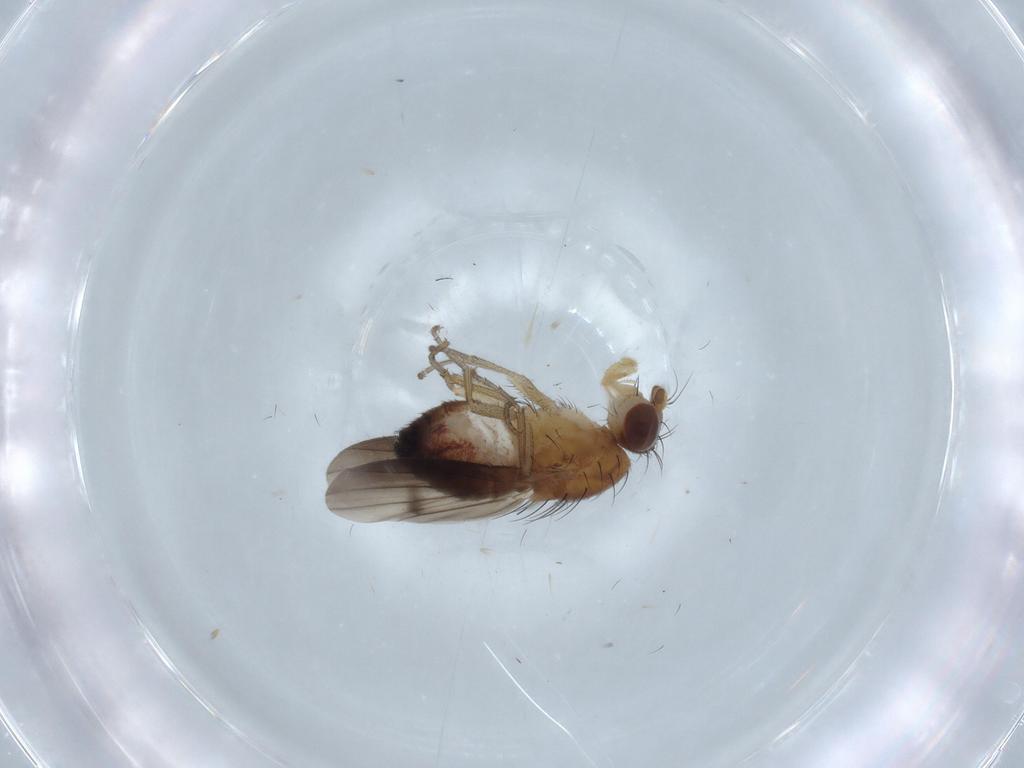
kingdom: Animalia
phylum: Arthropoda
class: Insecta
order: Diptera
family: Heleomyzidae
